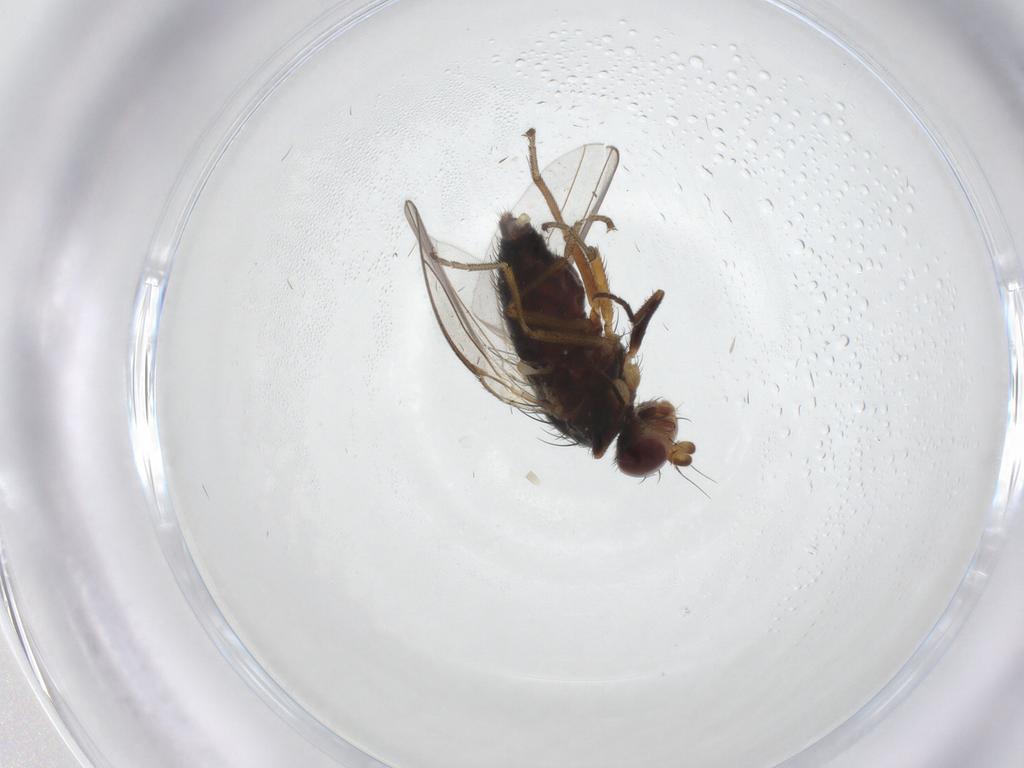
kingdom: Animalia
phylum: Arthropoda
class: Insecta
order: Diptera
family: Heleomyzidae
